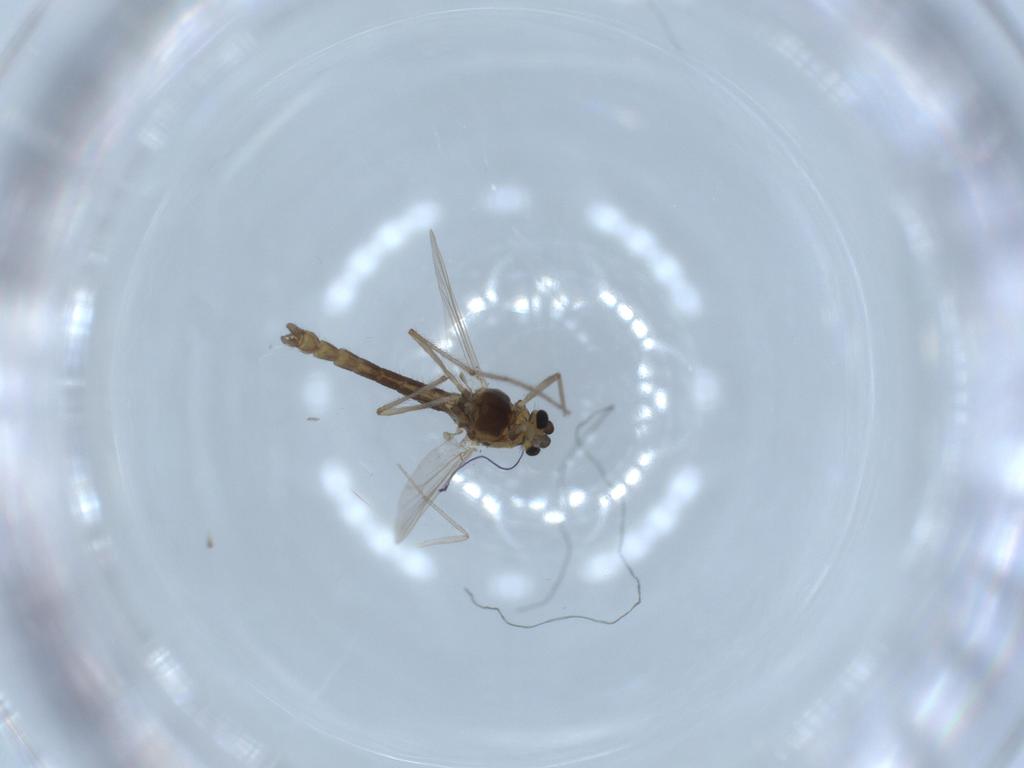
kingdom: Animalia
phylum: Arthropoda
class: Insecta
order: Diptera
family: Chironomidae
